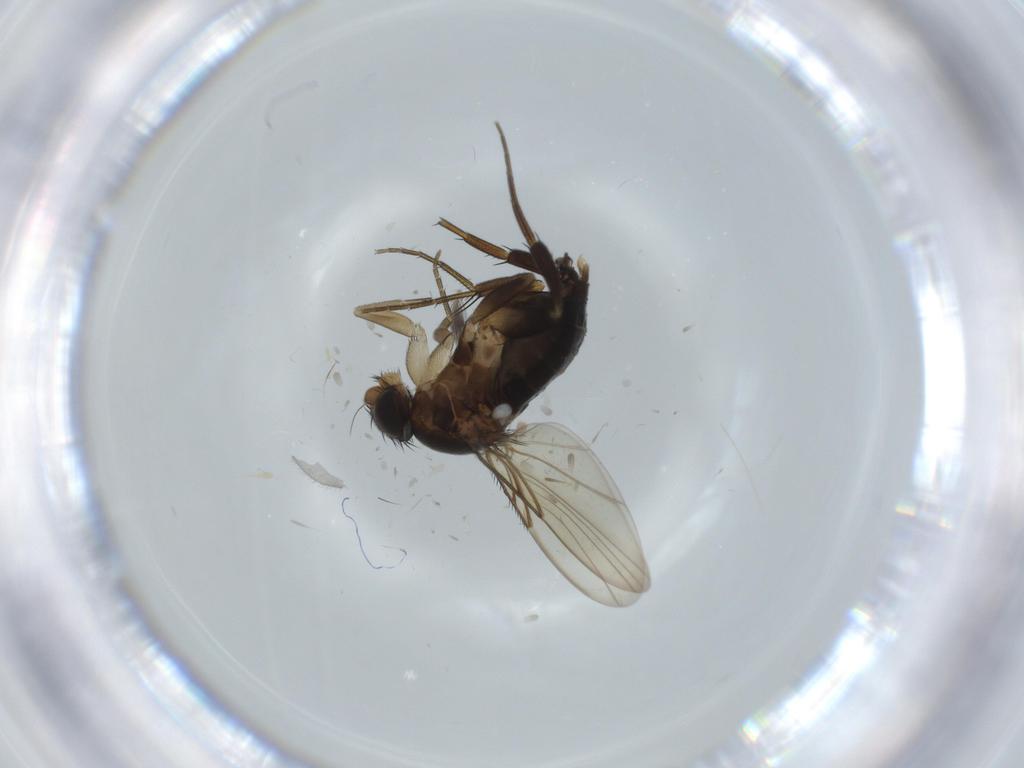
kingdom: Animalia
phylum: Arthropoda
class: Insecta
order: Diptera
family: Phoridae
